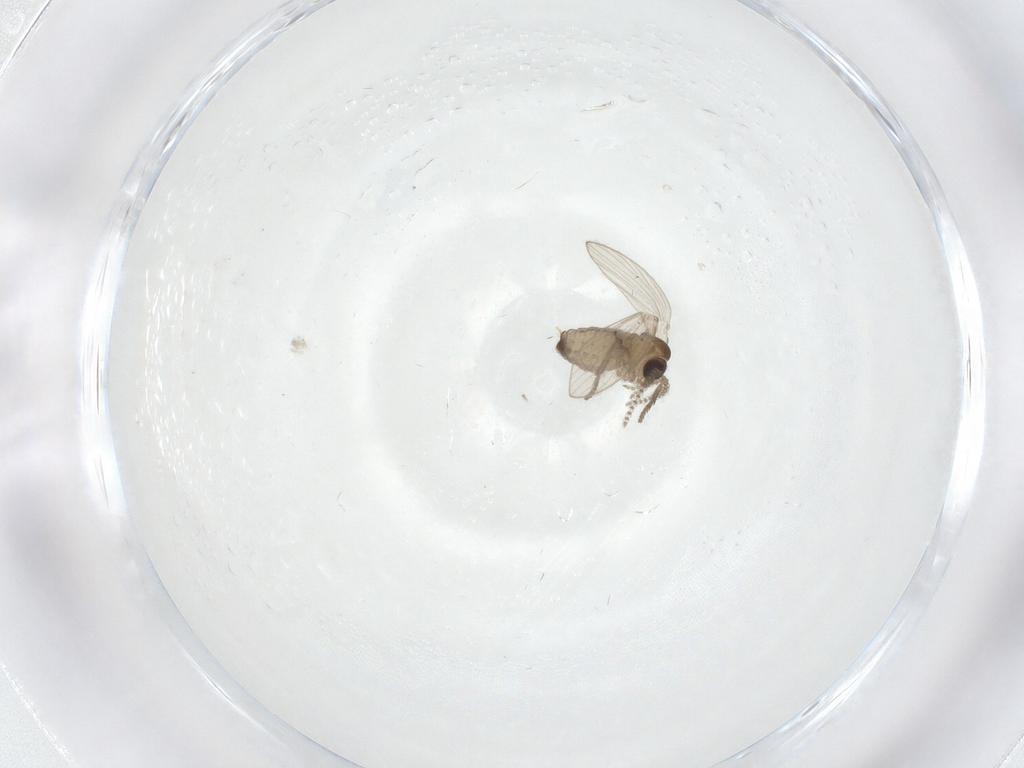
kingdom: Animalia
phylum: Arthropoda
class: Insecta
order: Diptera
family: Psychodidae
